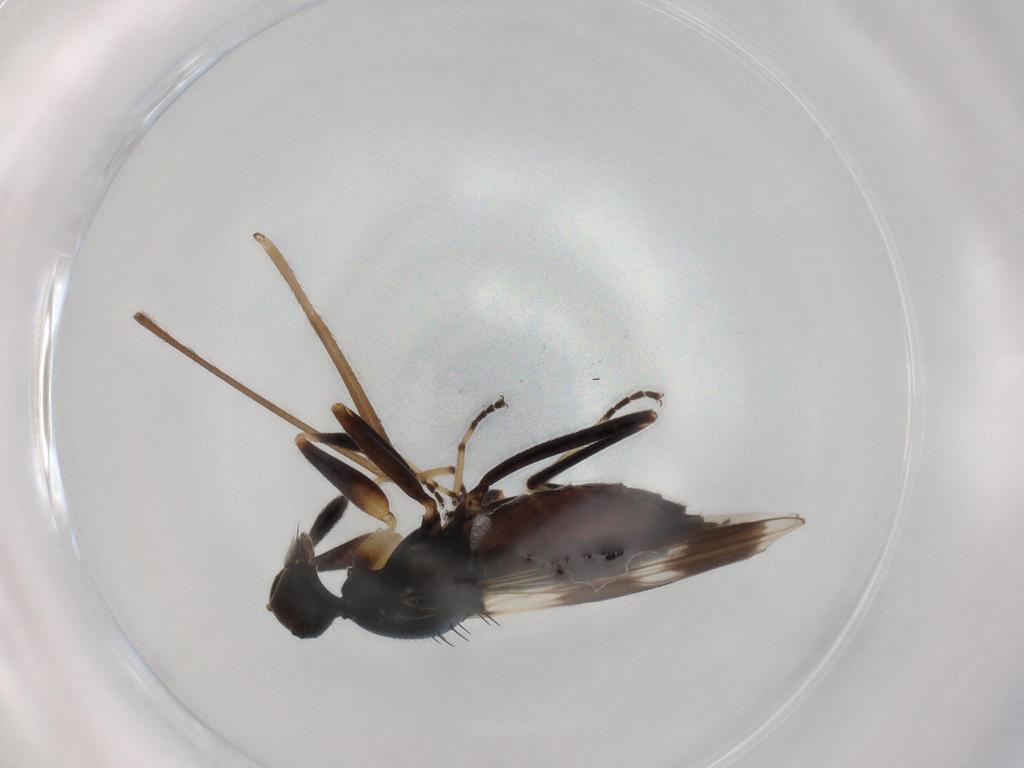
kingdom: Animalia
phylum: Arthropoda
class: Insecta
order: Diptera
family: Hybotidae
